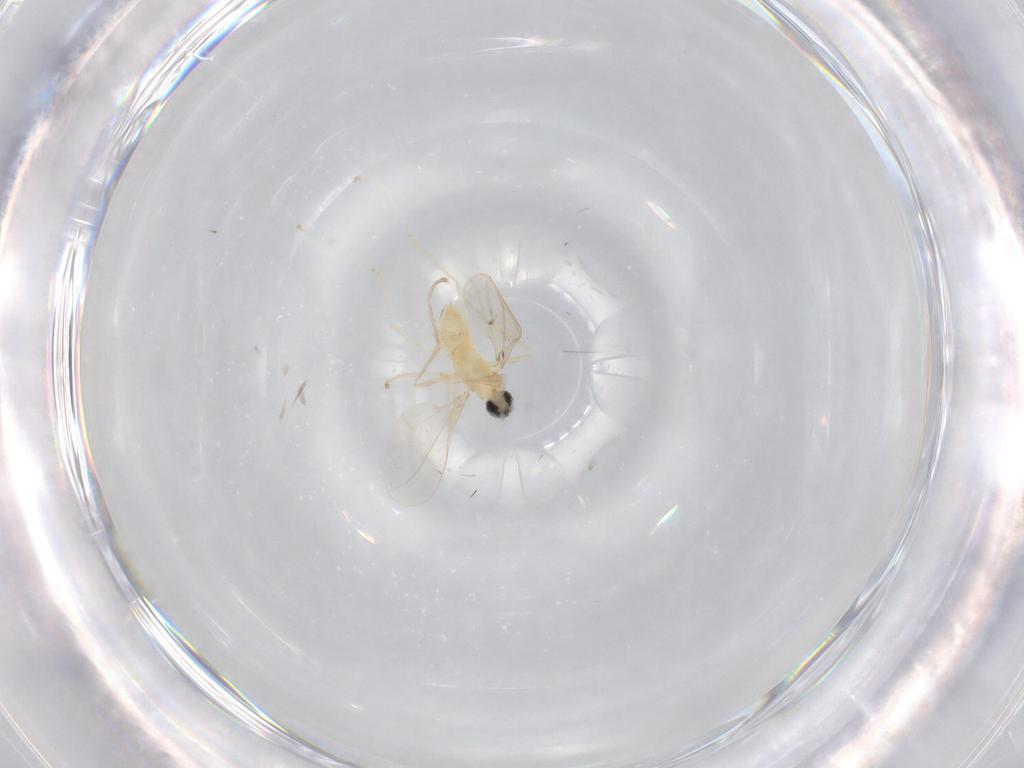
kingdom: Animalia
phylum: Arthropoda
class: Insecta
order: Diptera
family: Cecidomyiidae
